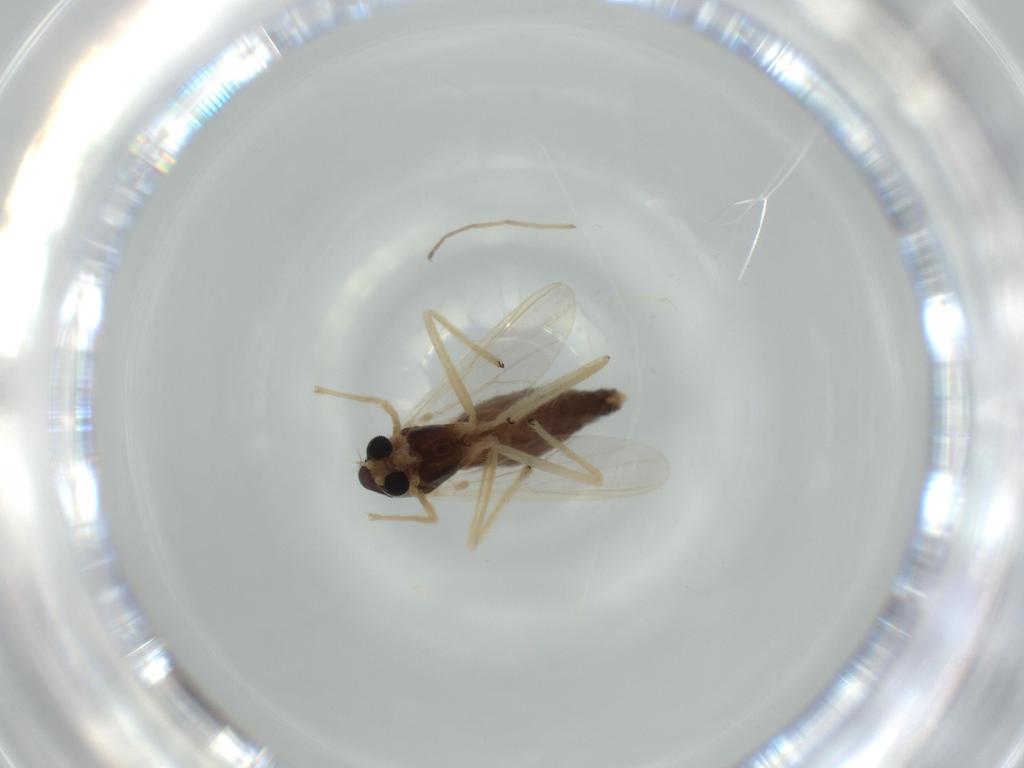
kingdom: Animalia
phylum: Arthropoda
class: Insecta
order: Diptera
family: Chironomidae
